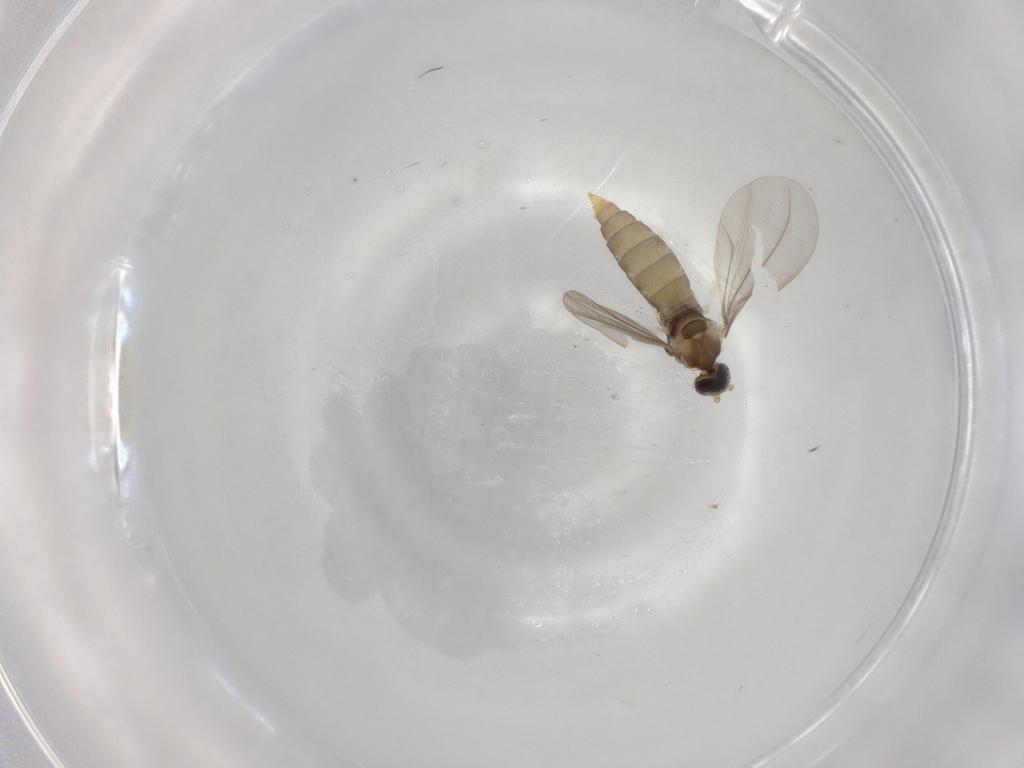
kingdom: Animalia
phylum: Arthropoda
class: Insecta
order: Diptera
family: Cecidomyiidae
